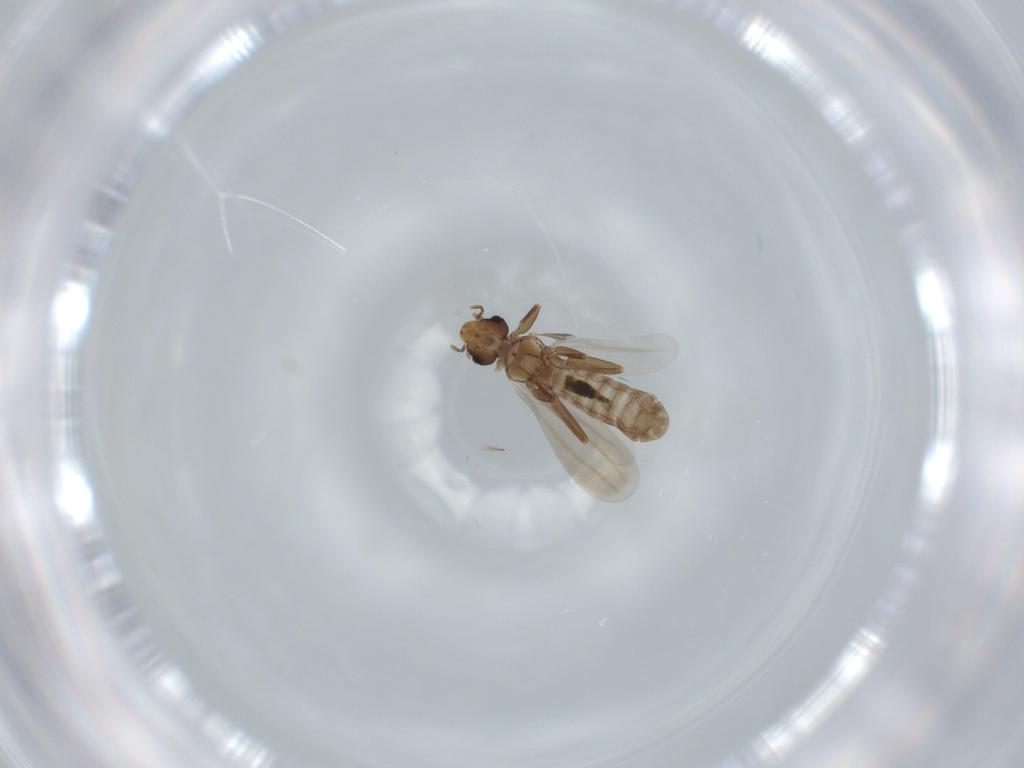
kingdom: Animalia
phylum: Arthropoda
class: Insecta
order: Psocodea
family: Liposcelididae
